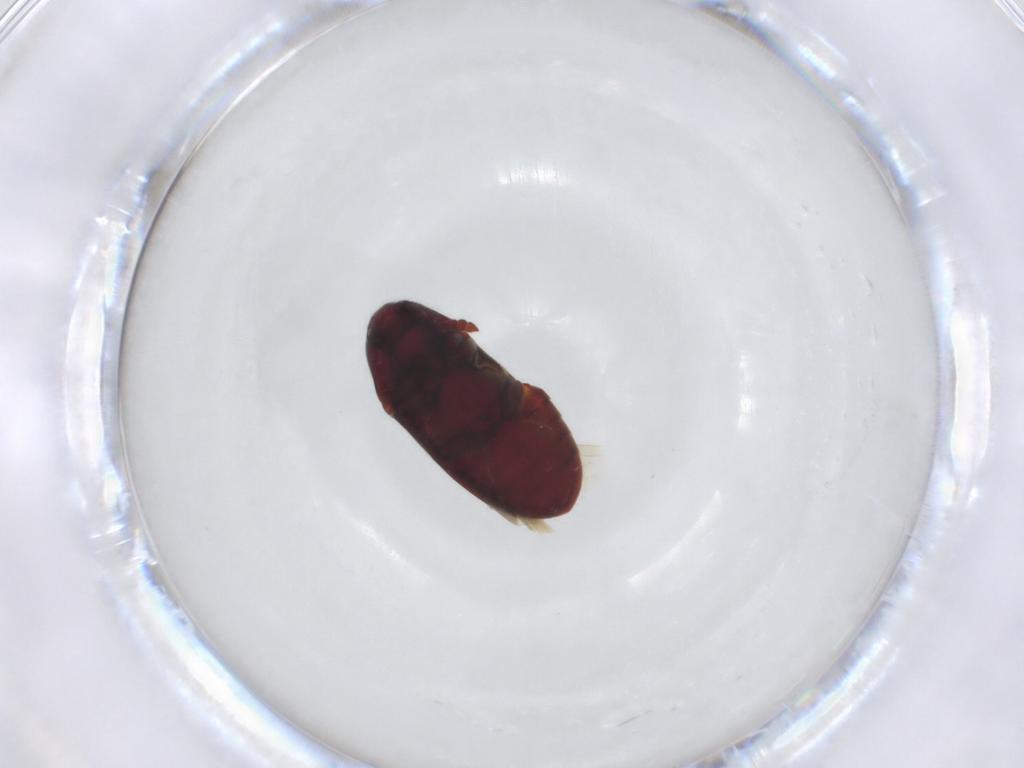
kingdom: Animalia
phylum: Arthropoda
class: Insecta
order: Coleoptera
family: Throscidae
